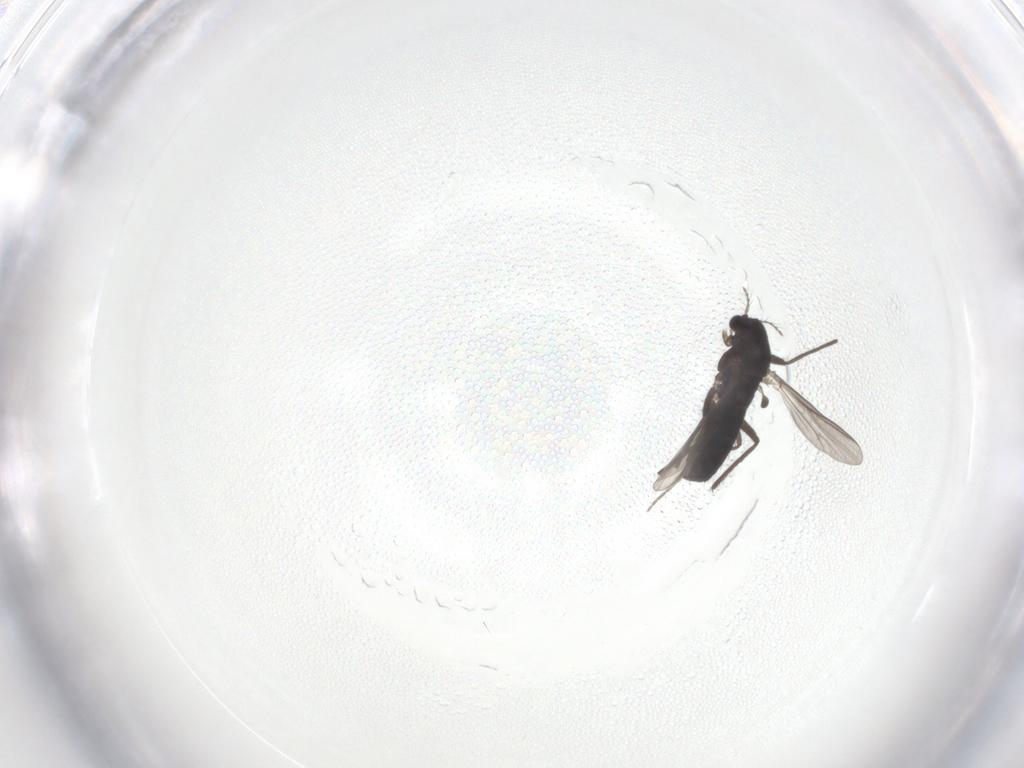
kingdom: Animalia
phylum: Arthropoda
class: Insecta
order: Diptera
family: Chironomidae
